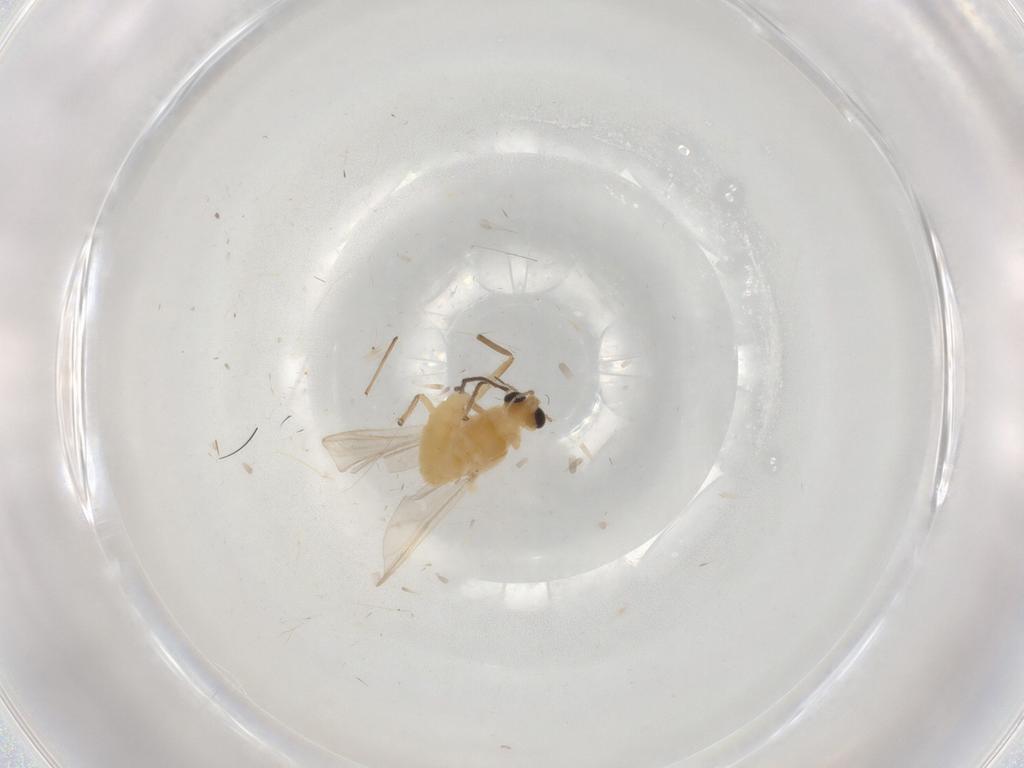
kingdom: Animalia
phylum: Arthropoda
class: Insecta
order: Diptera
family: Chironomidae
